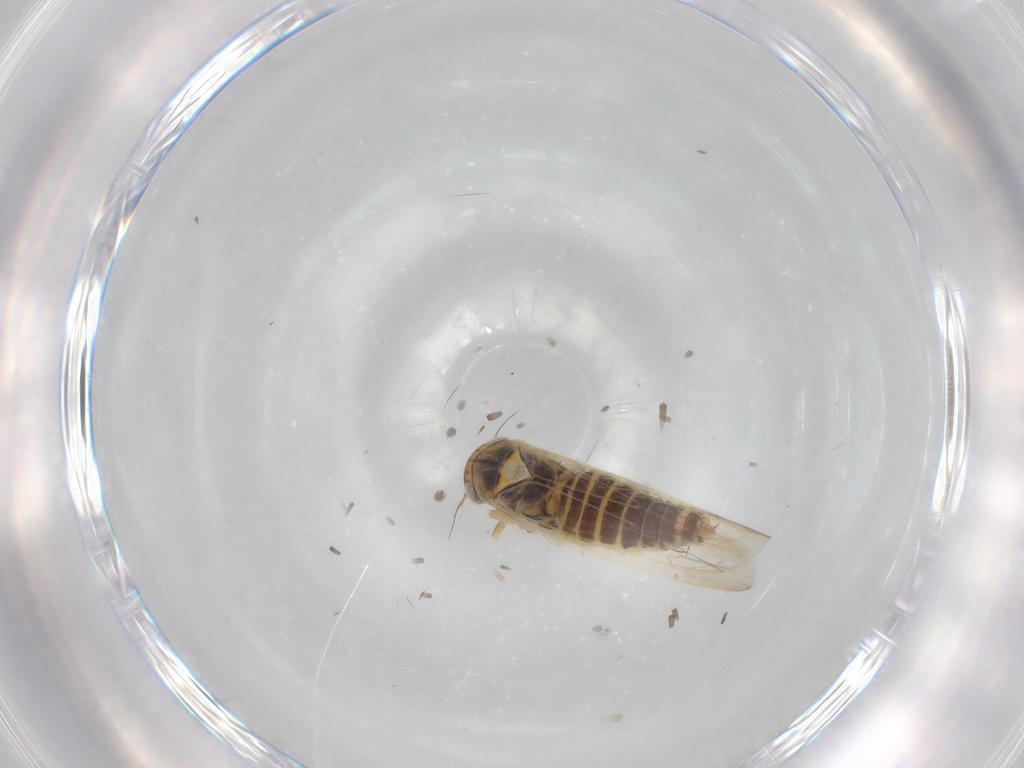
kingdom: Animalia
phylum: Arthropoda
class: Insecta
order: Hemiptera
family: Cicadellidae
